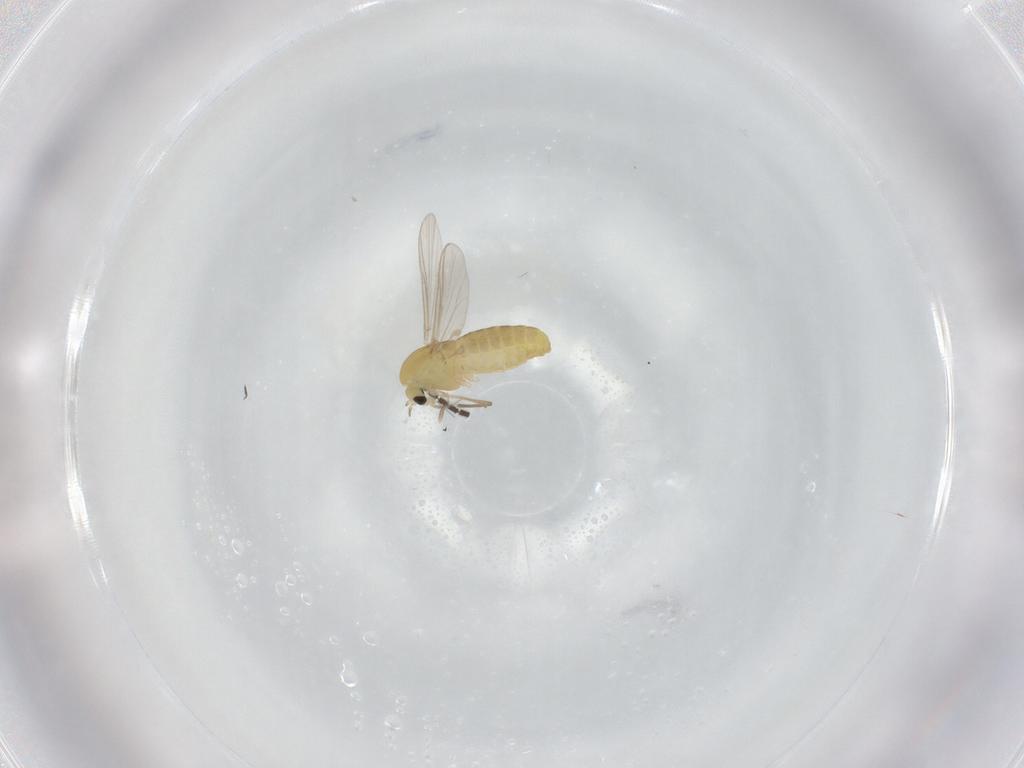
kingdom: Animalia
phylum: Arthropoda
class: Insecta
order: Diptera
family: Chironomidae
